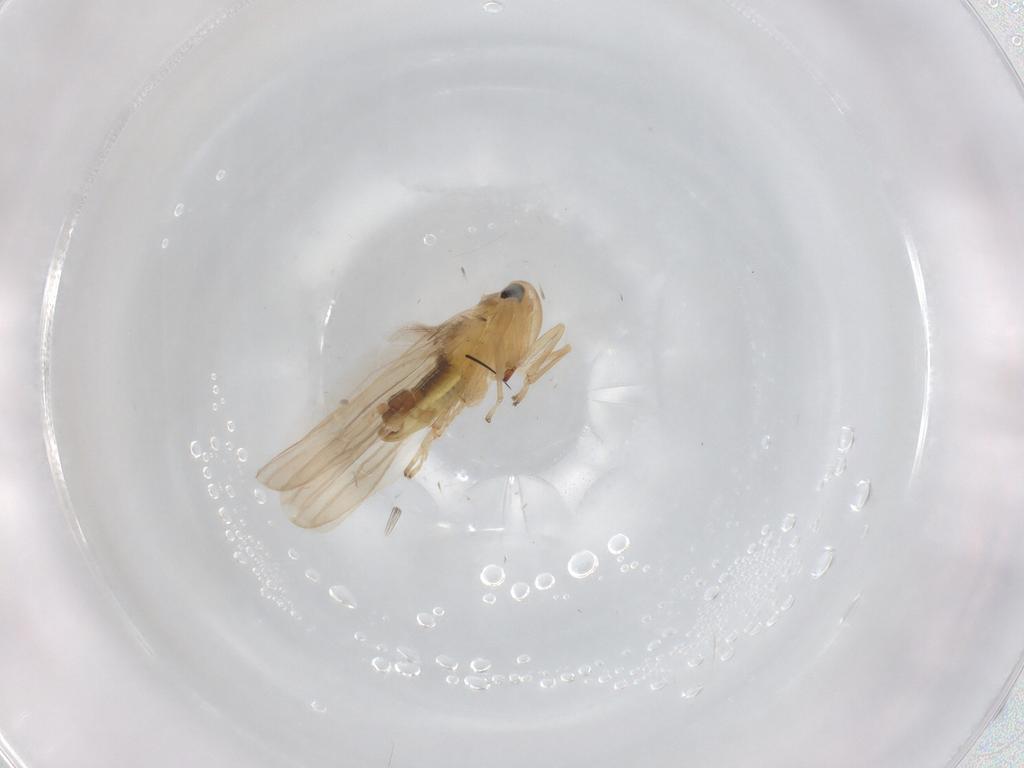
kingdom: Animalia
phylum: Arthropoda
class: Insecta
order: Hemiptera
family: Cicadellidae
